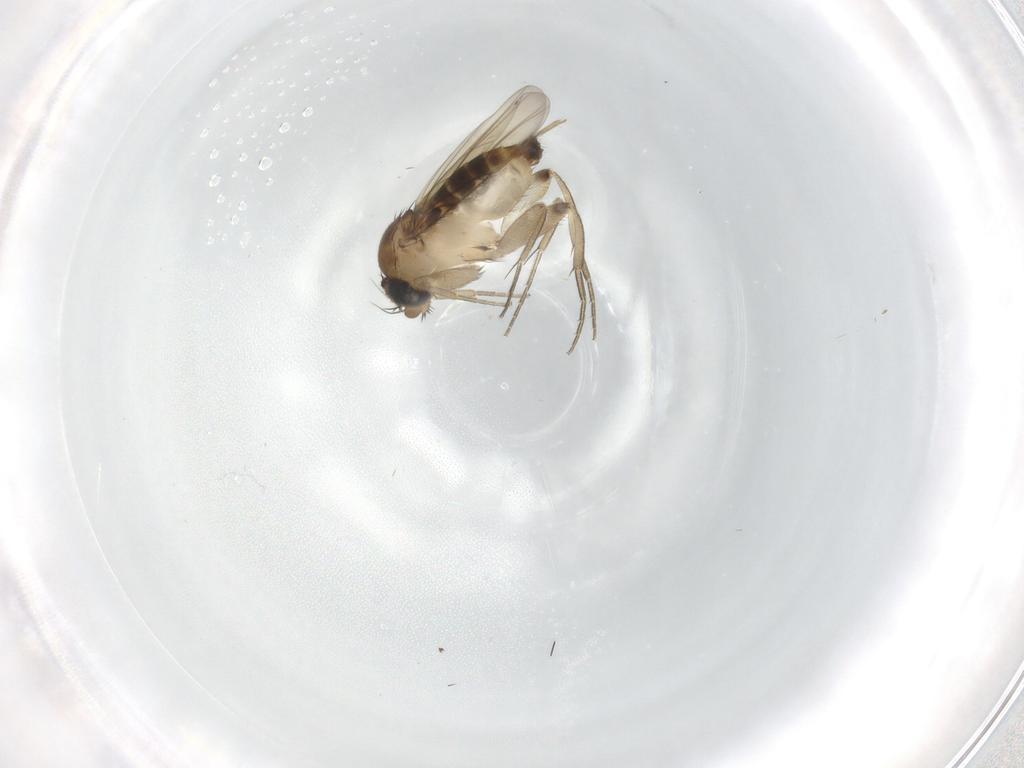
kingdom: Animalia
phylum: Arthropoda
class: Insecta
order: Diptera
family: Phoridae
